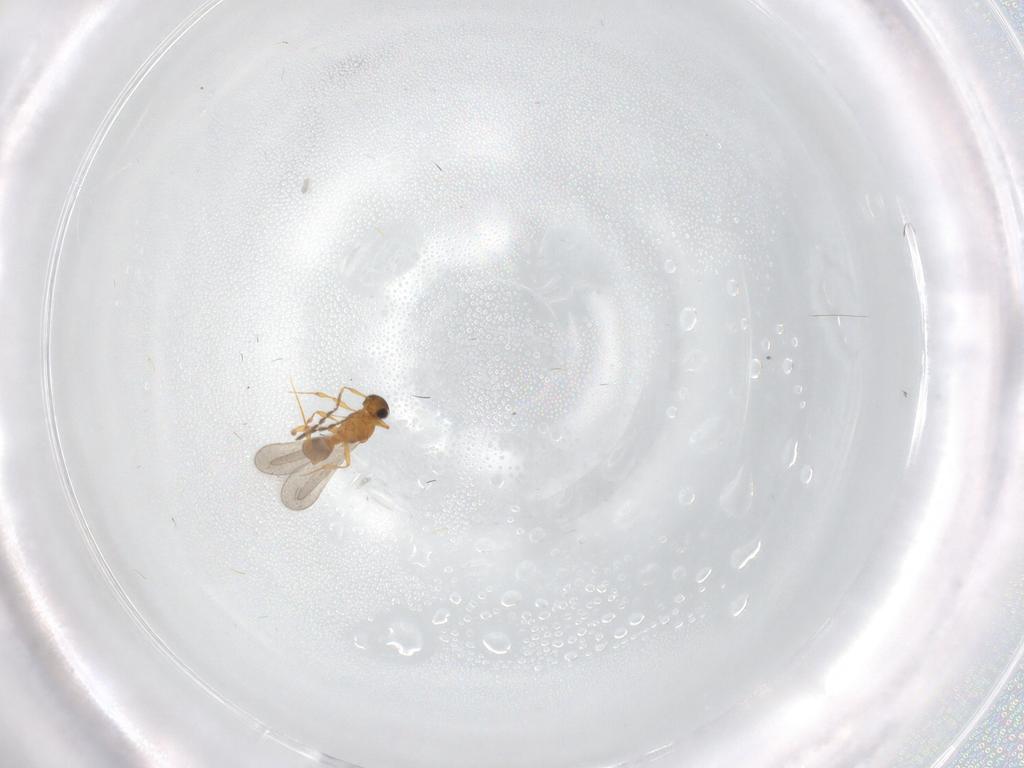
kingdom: Animalia
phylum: Arthropoda
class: Insecta
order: Hymenoptera
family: Platygastridae
